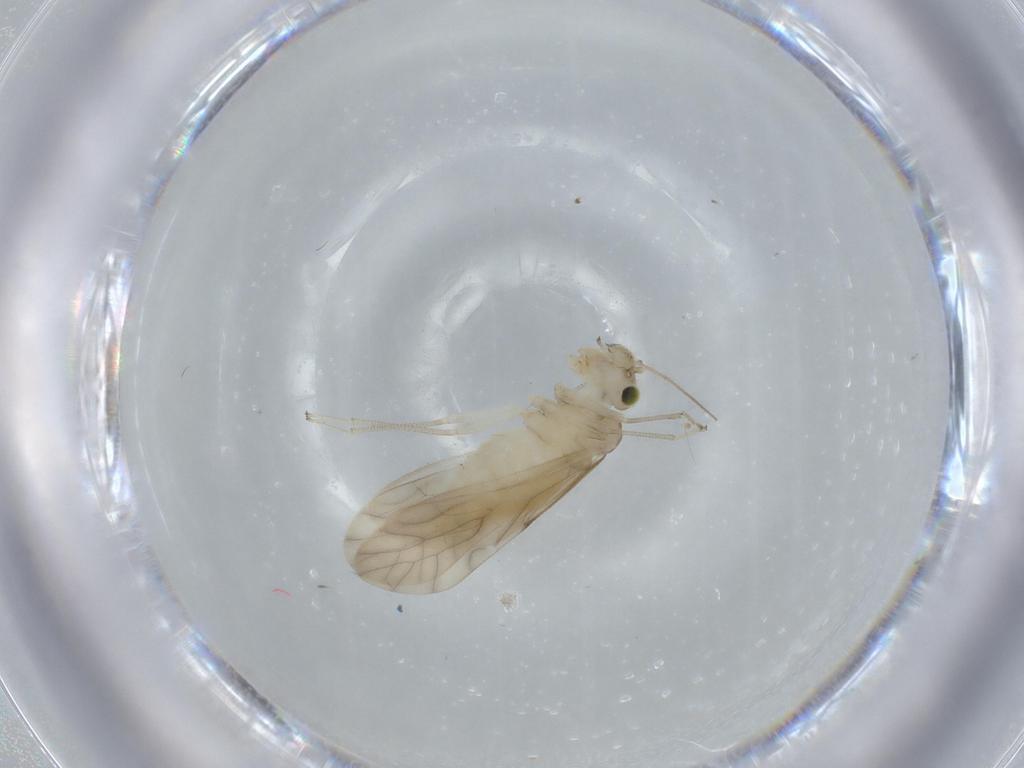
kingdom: Animalia
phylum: Arthropoda
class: Insecta
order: Psocodea
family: Caeciliusidae
